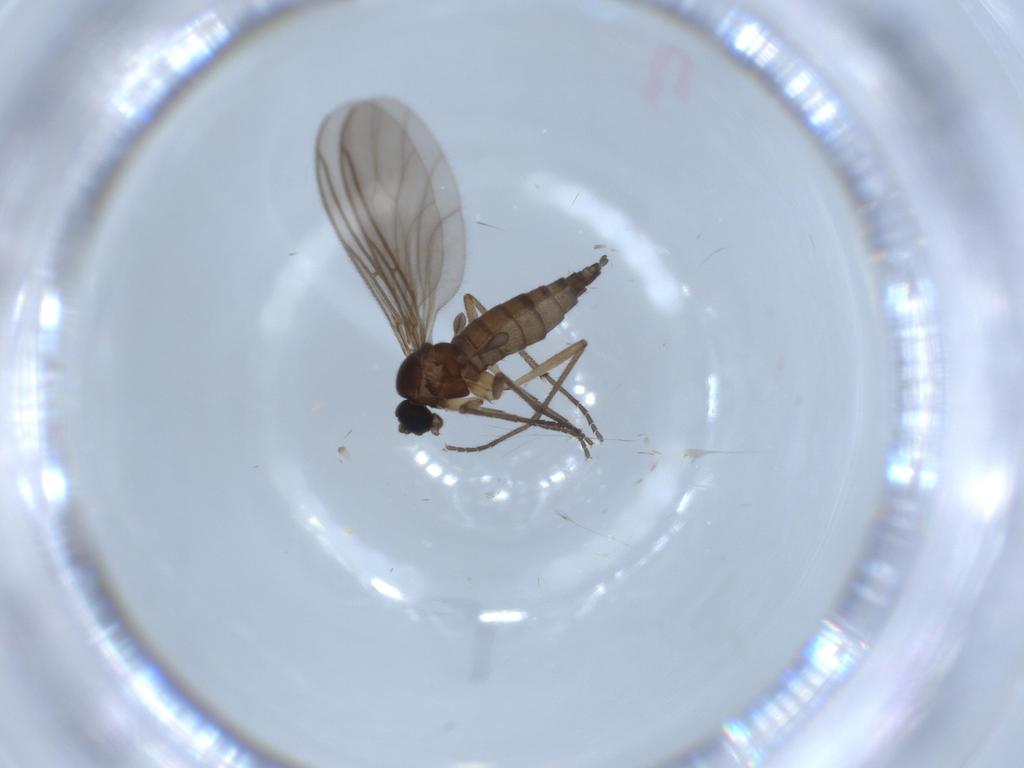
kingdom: Animalia
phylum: Arthropoda
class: Insecta
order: Diptera
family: Sciaridae
